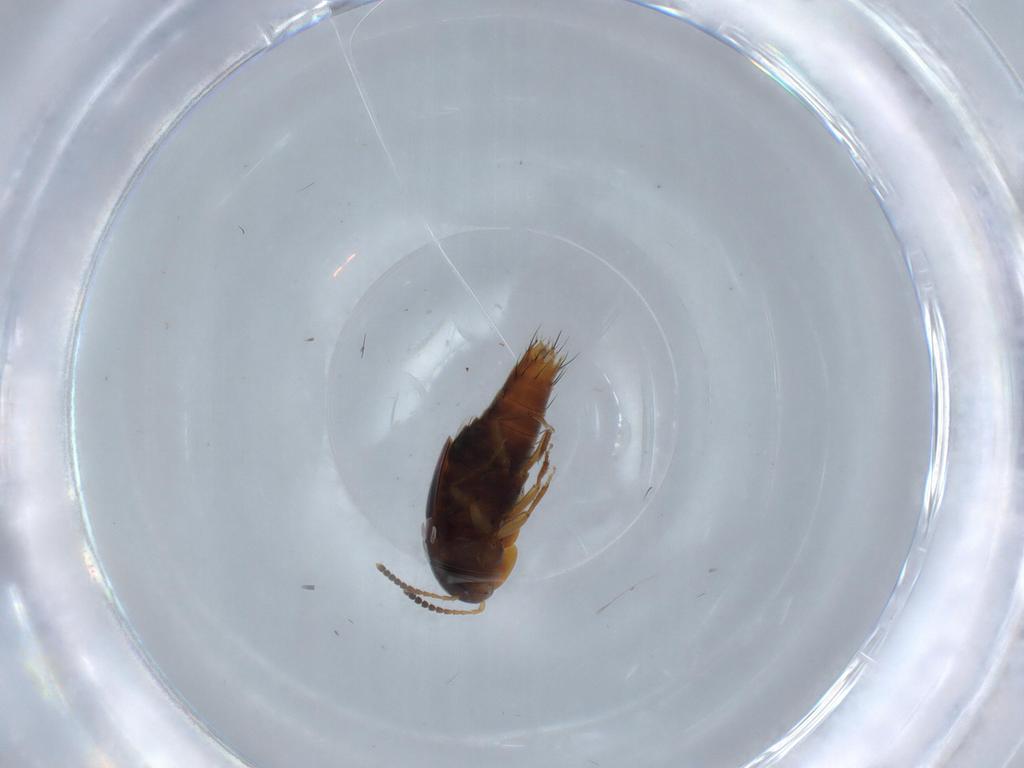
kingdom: Animalia
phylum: Arthropoda
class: Insecta
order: Coleoptera
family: Staphylinidae
